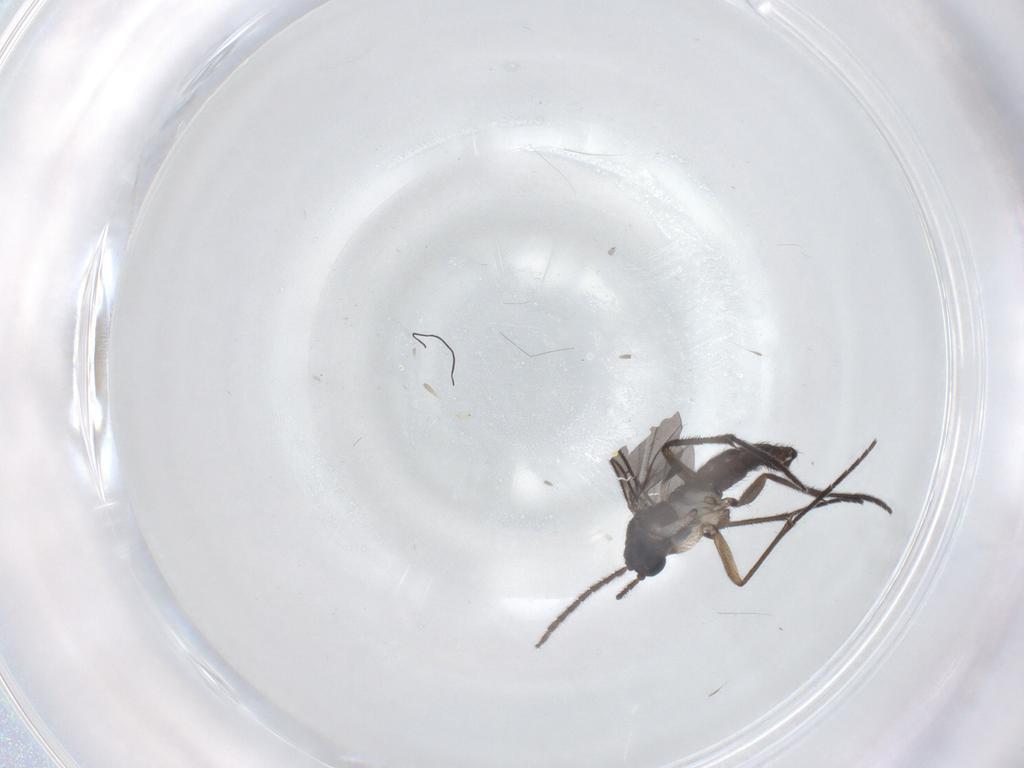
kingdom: Animalia
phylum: Arthropoda
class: Insecta
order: Diptera
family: Sciaridae
